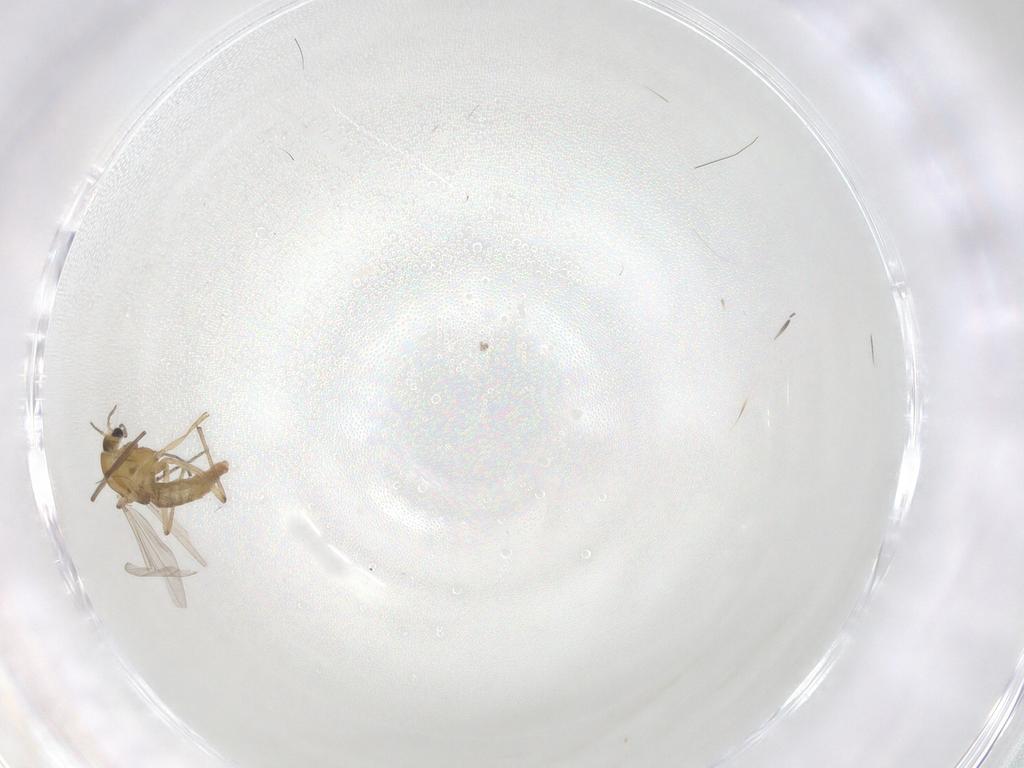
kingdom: Animalia
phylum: Arthropoda
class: Insecta
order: Diptera
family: Chironomidae
